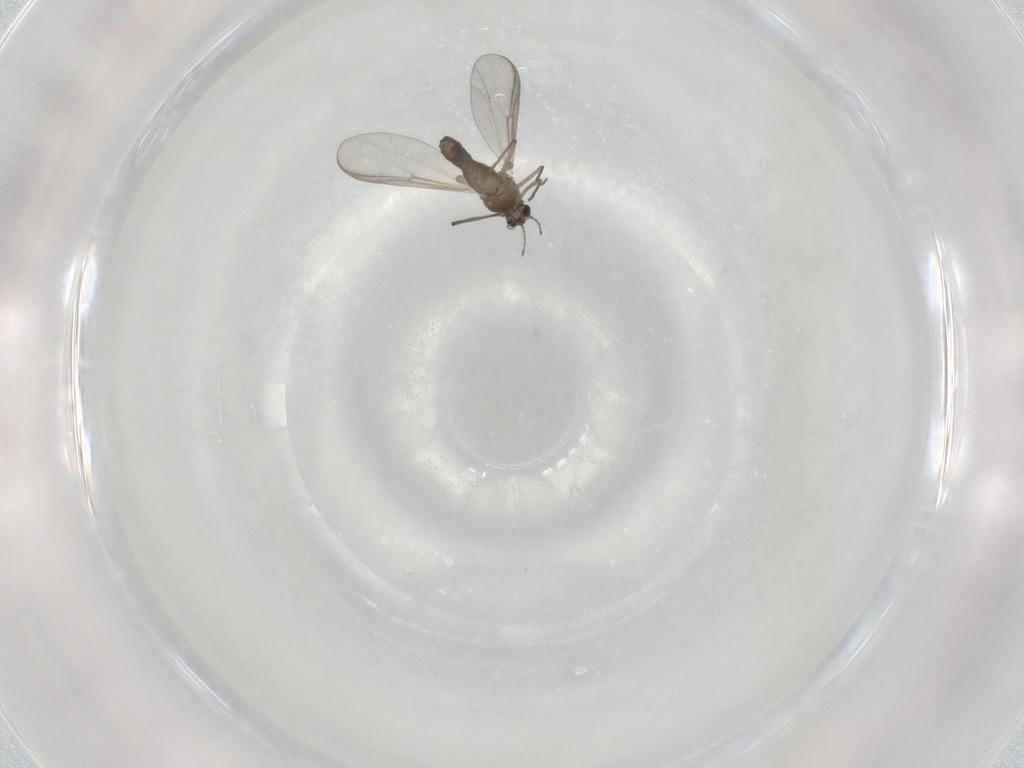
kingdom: Animalia
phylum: Arthropoda
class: Insecta
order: Diptera
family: Chironomidae
